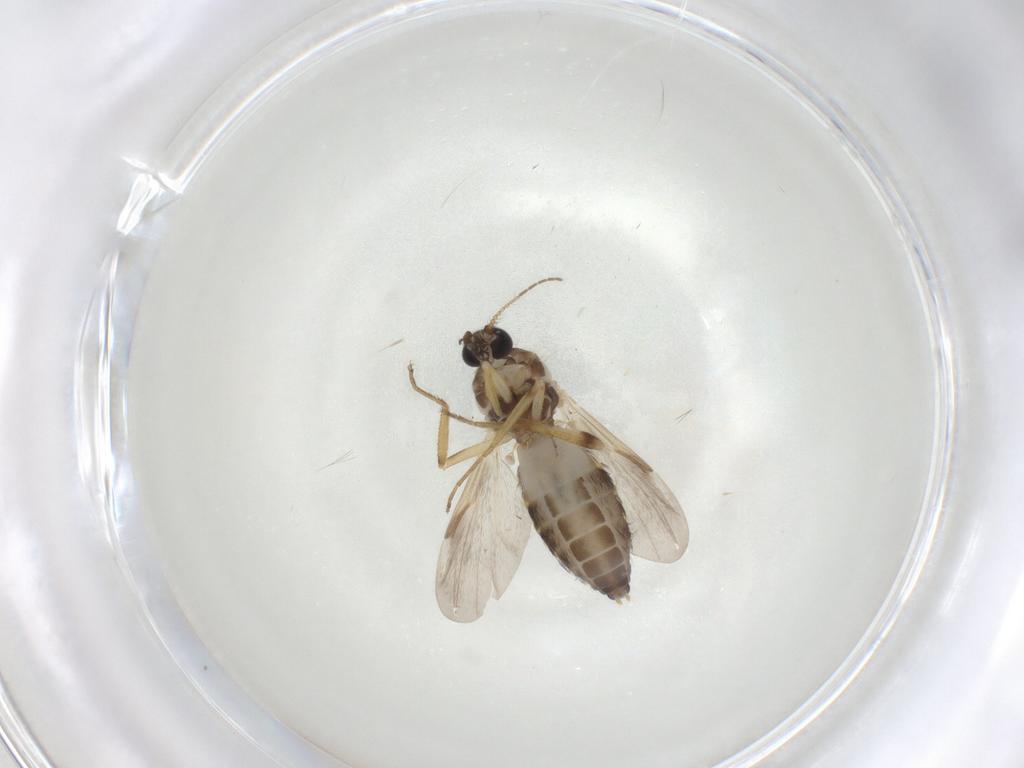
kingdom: Animalia
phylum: Arthropoda
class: Insecta
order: Diptera
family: Ceratopogonidae
